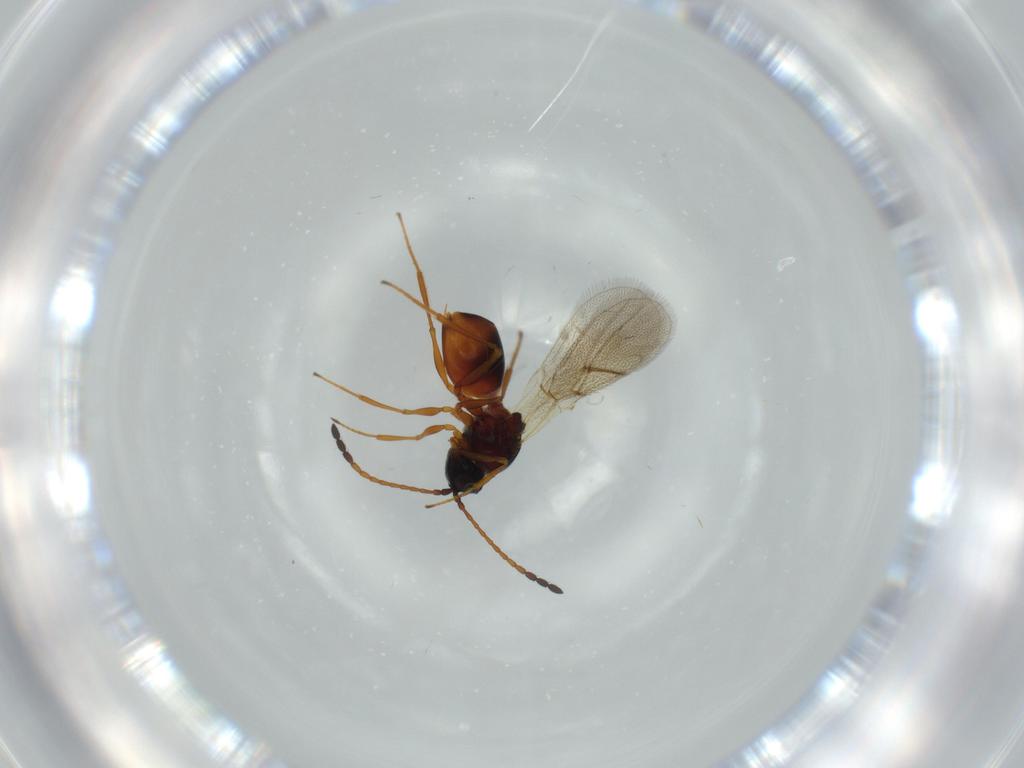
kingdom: Animalia
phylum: Arthropoda
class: Insecta
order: Hymenoptera
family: Figitidae
